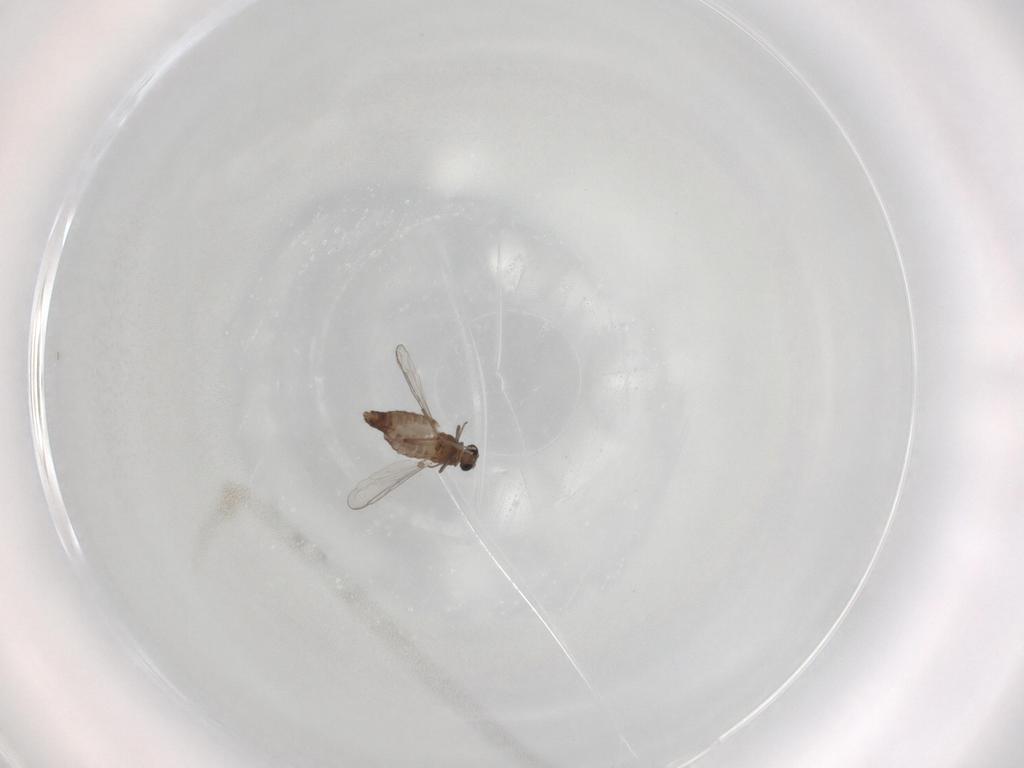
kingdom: Animalia
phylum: Arthropoda
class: Insecta
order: Diptera
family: Chironomidae
